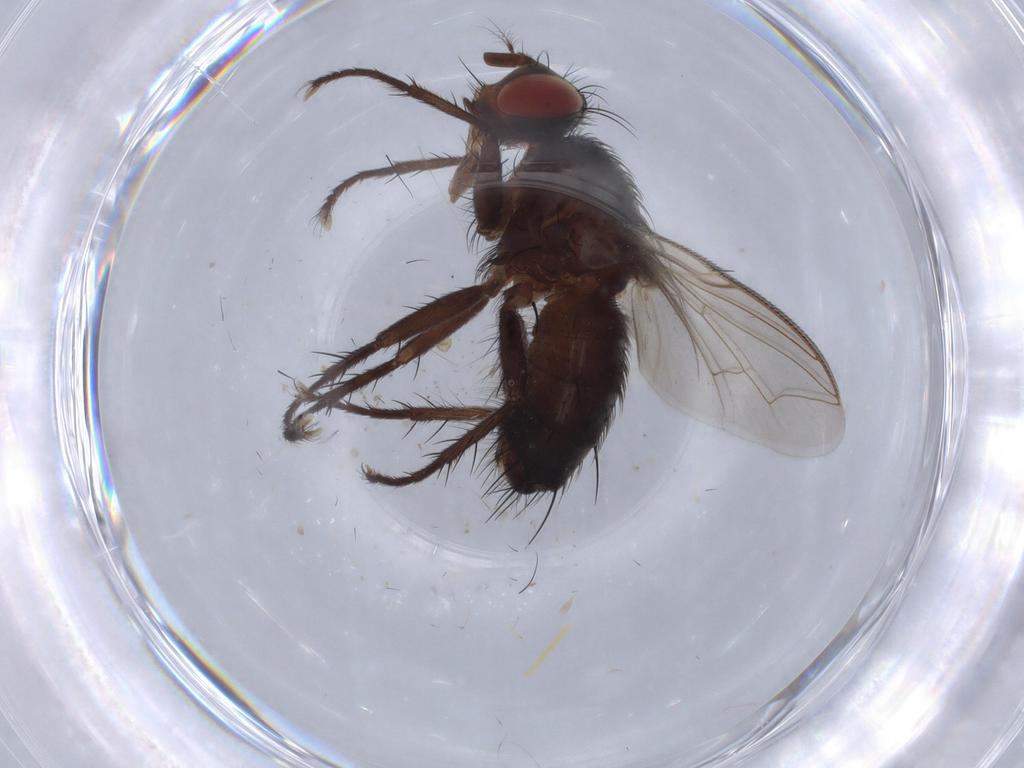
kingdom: Animalia
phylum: Arthropoda
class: Insecta
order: Diptera
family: Sarcophagidae
